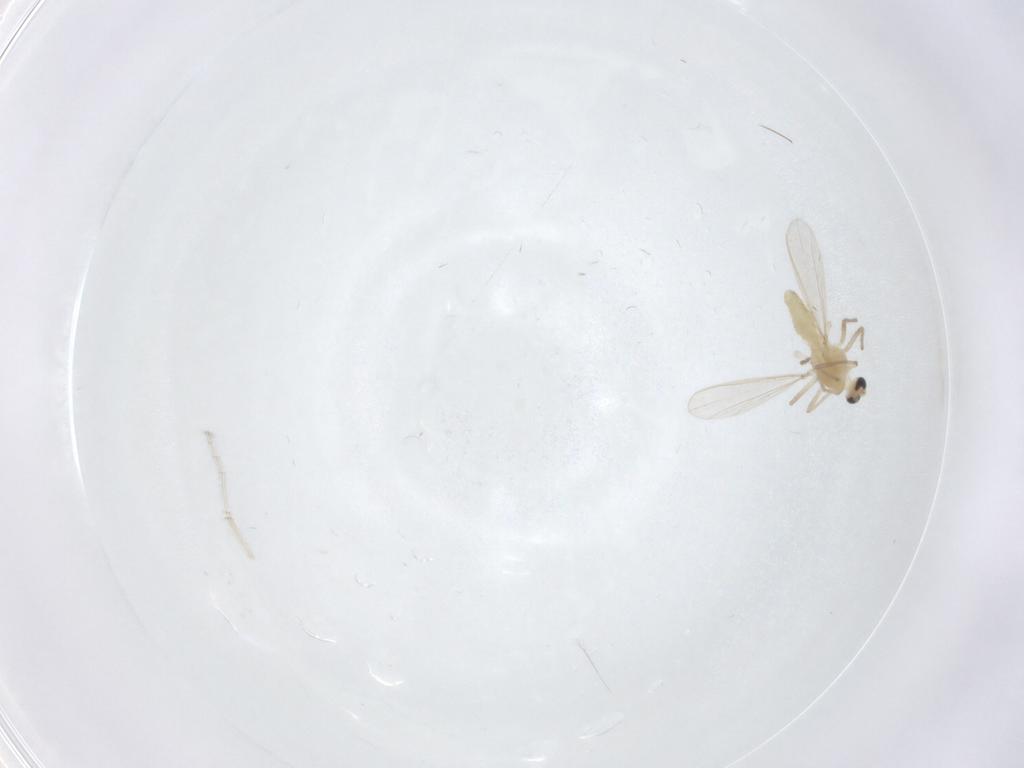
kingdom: Animalia
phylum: Arthropoda
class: Insecta
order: Diptera
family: Chironomidae
